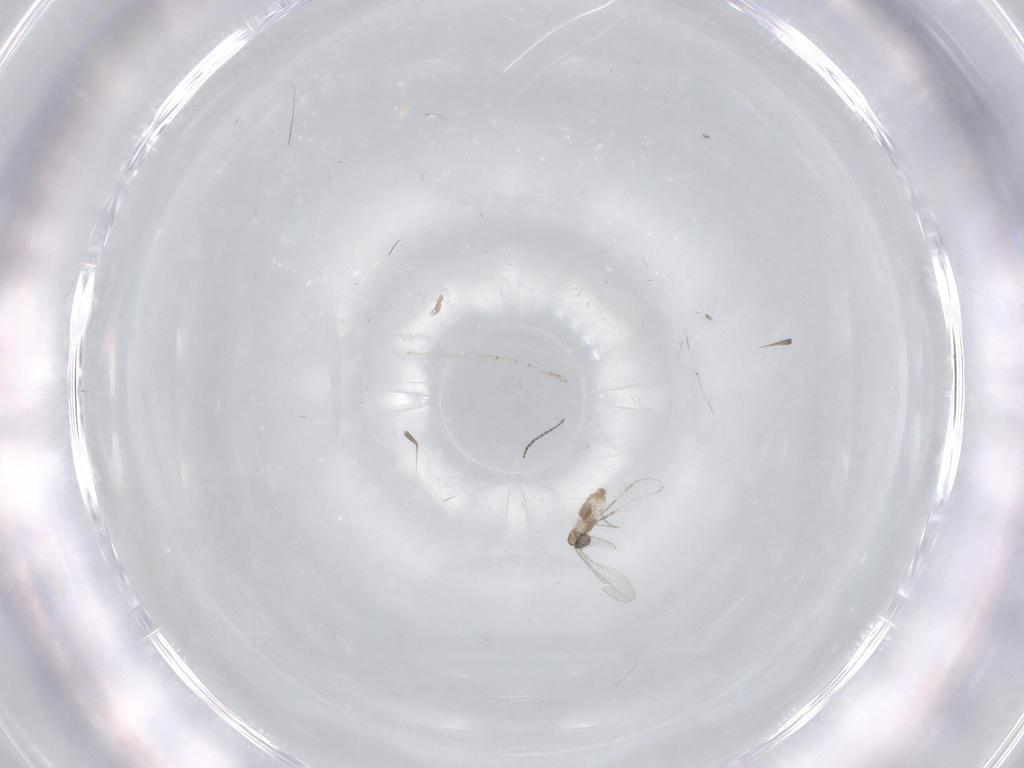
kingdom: Animalia
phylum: Arthropoda
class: Insecta
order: Diptera
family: Cecidomyiidae
